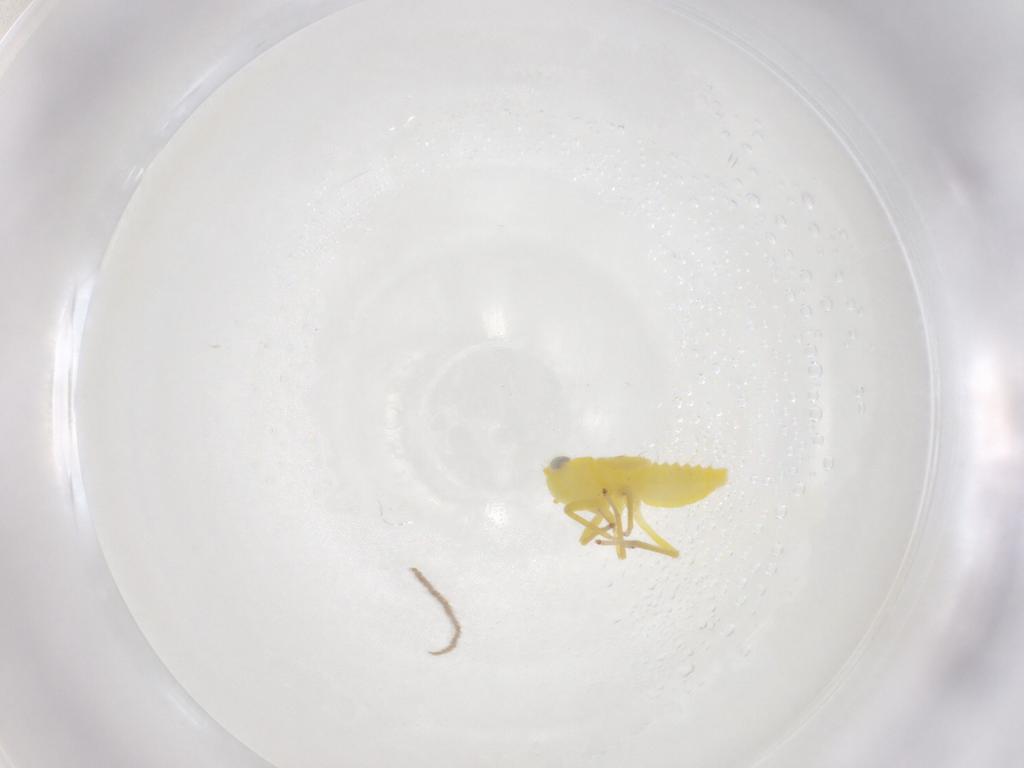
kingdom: Animalia
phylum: Arthropoda
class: Insecta
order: Hemiptera
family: Cicadellidae
